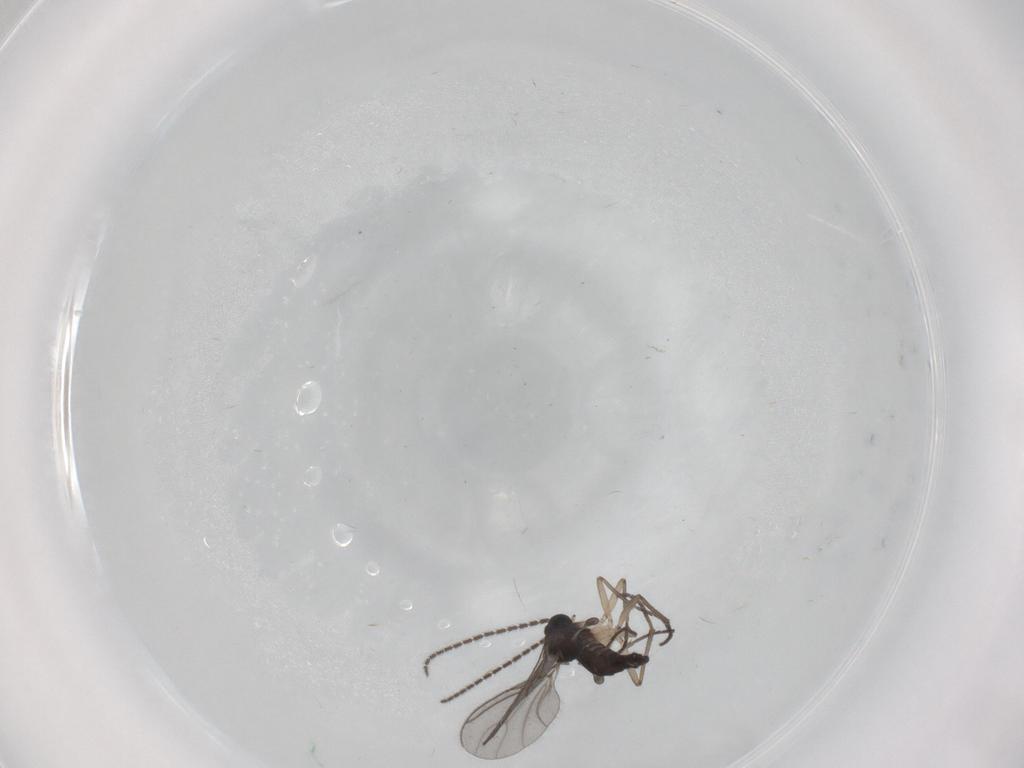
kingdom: Animalia
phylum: Arthropoda
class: Insecta
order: Diptera
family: Sciaridae
